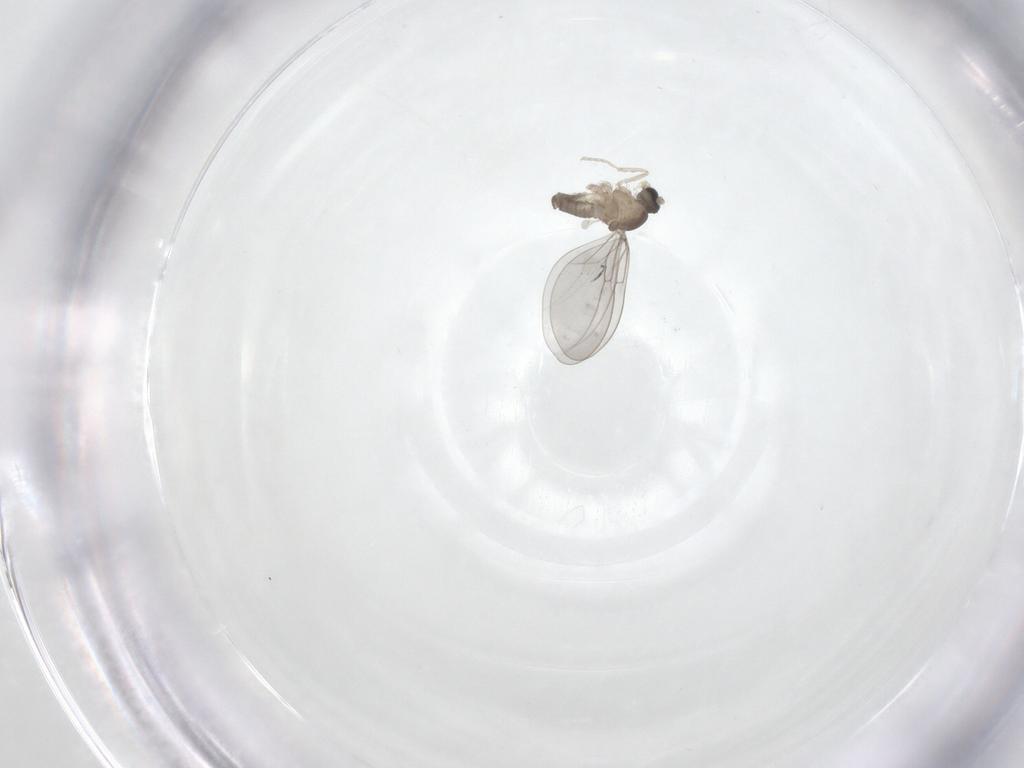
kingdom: Animalia
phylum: Arthropoda
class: Insecta
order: Diptera
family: Cecidomyiidae
